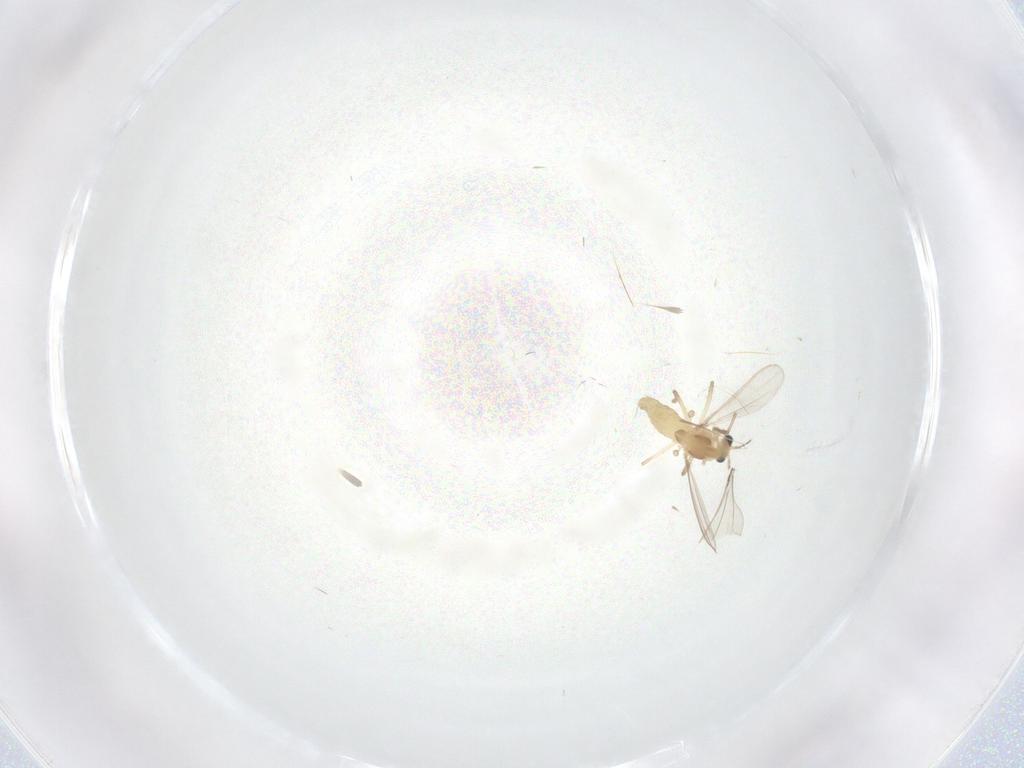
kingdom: Animalia
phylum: Arthropoda
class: Insecta
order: Diptera
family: Chironomidae
